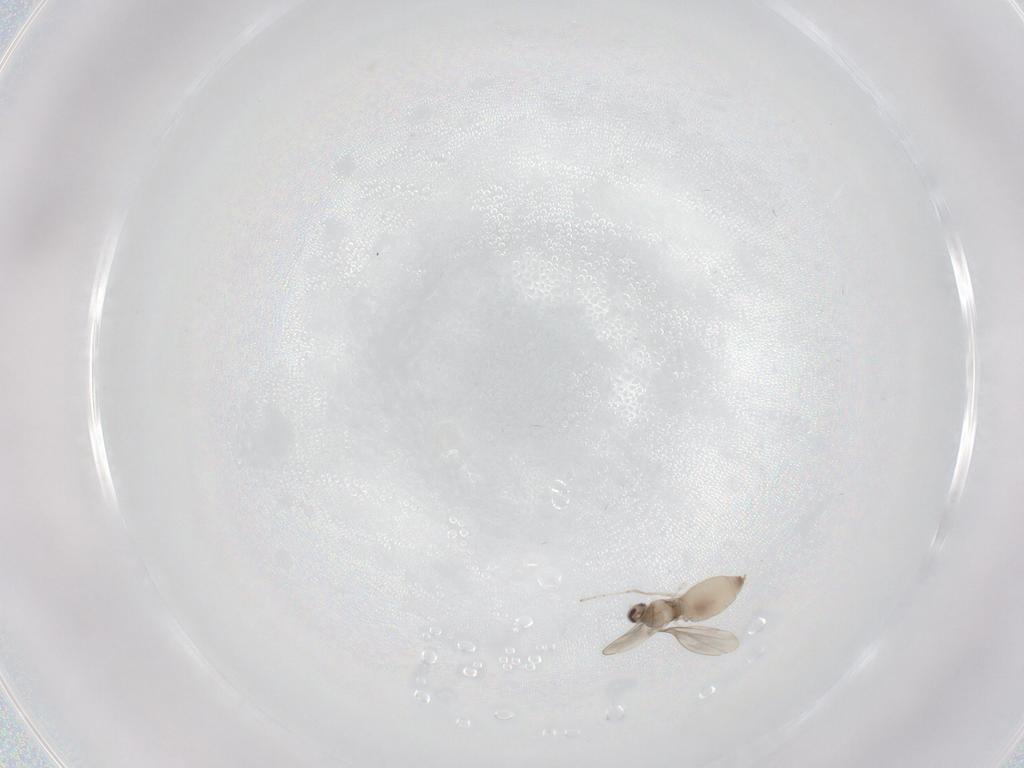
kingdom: Animalia
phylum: Arthropoda
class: Insecta
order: Diptera
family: Cecidomyiidae
